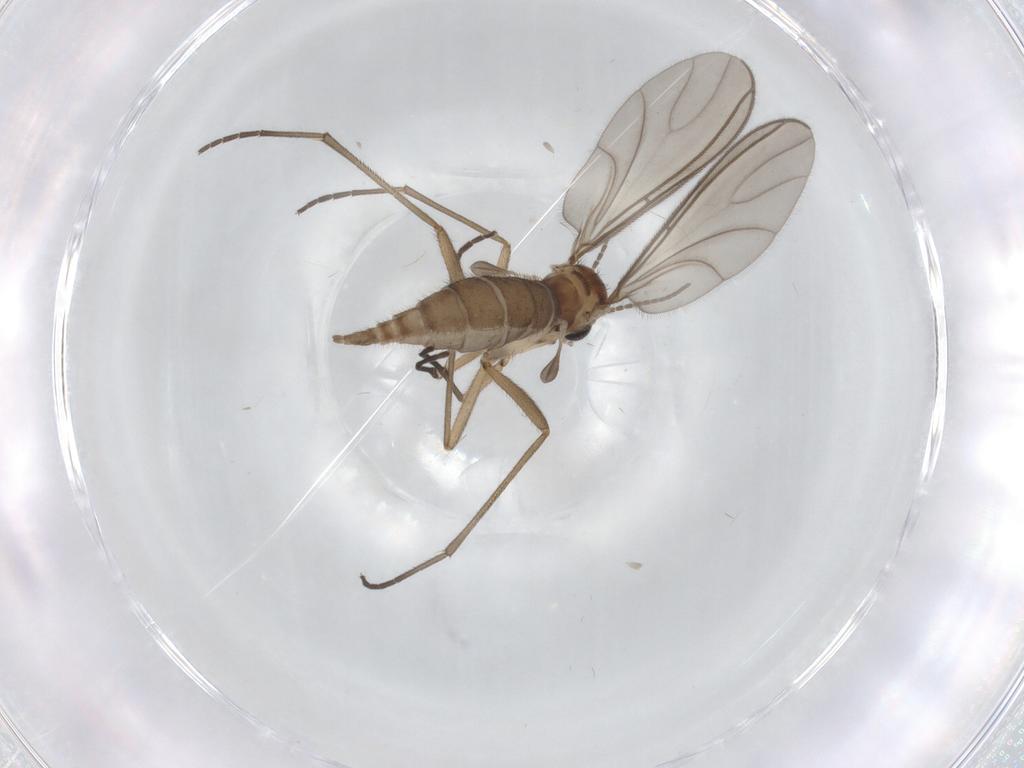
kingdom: Animalia
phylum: Arthropoda
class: Insecta
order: Diptera
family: Sciaridae
